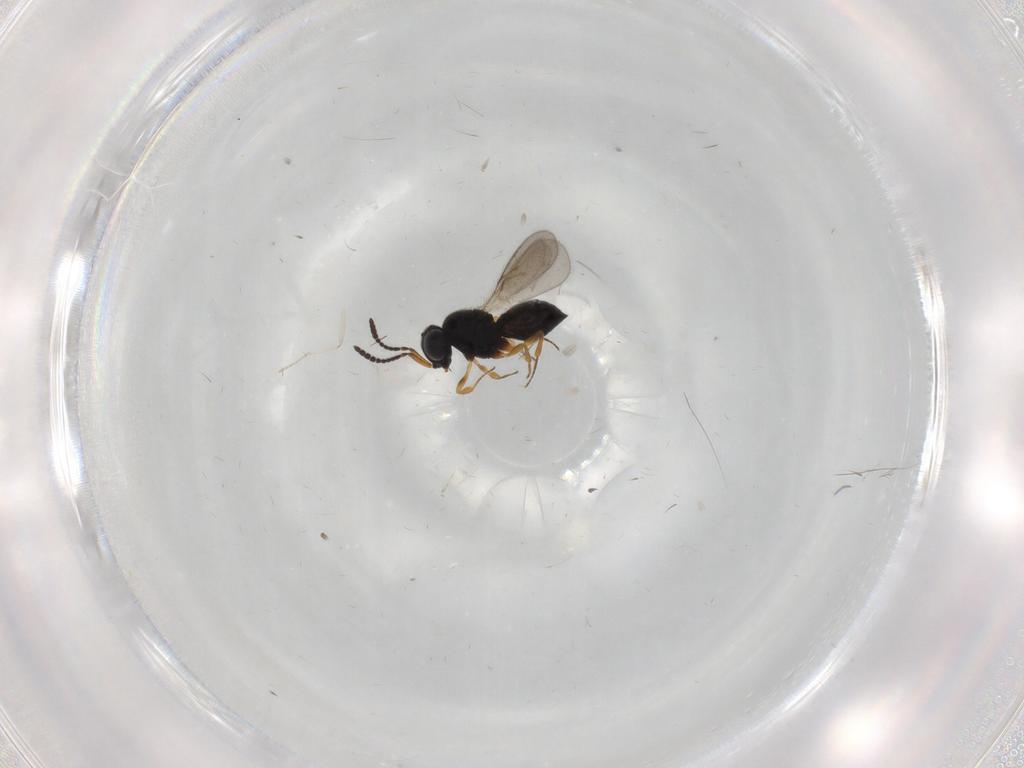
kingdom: Animalia
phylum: Arthropoda
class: Insecta
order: Hymenoptera
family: Scelionidae
